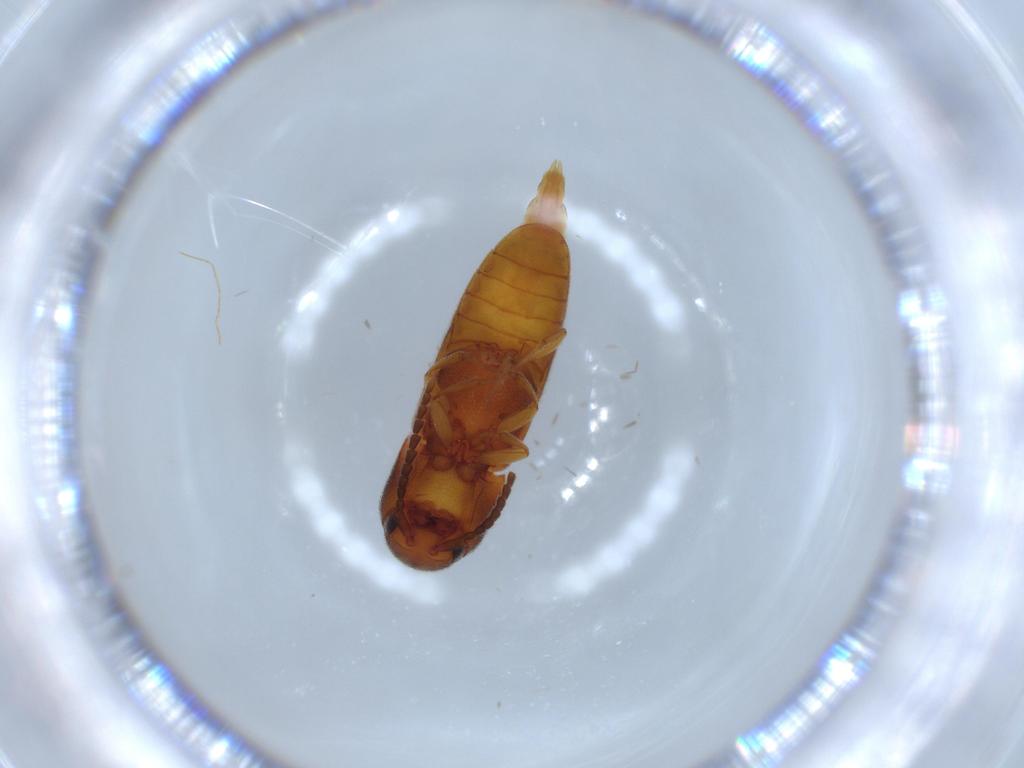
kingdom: Animalia
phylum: Arthropoda
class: Insecta
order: Coleoptera
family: Eucnemidae
